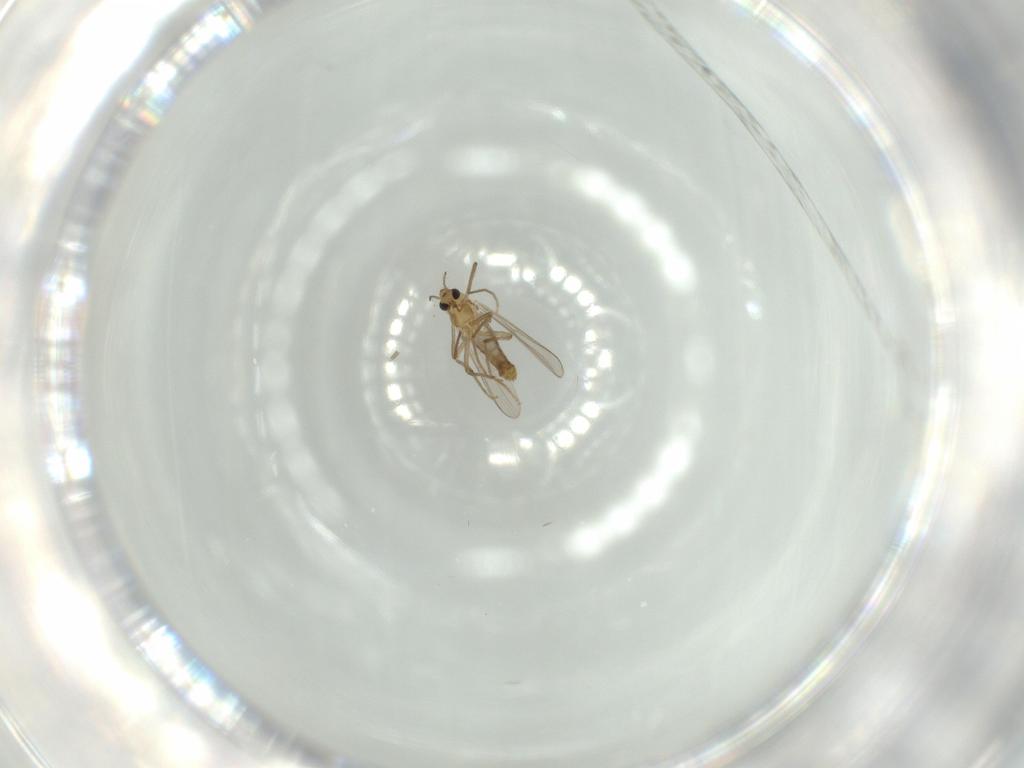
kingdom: Animalia
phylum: Arthropoda
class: Insecta
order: Diptera
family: Chironomidae
